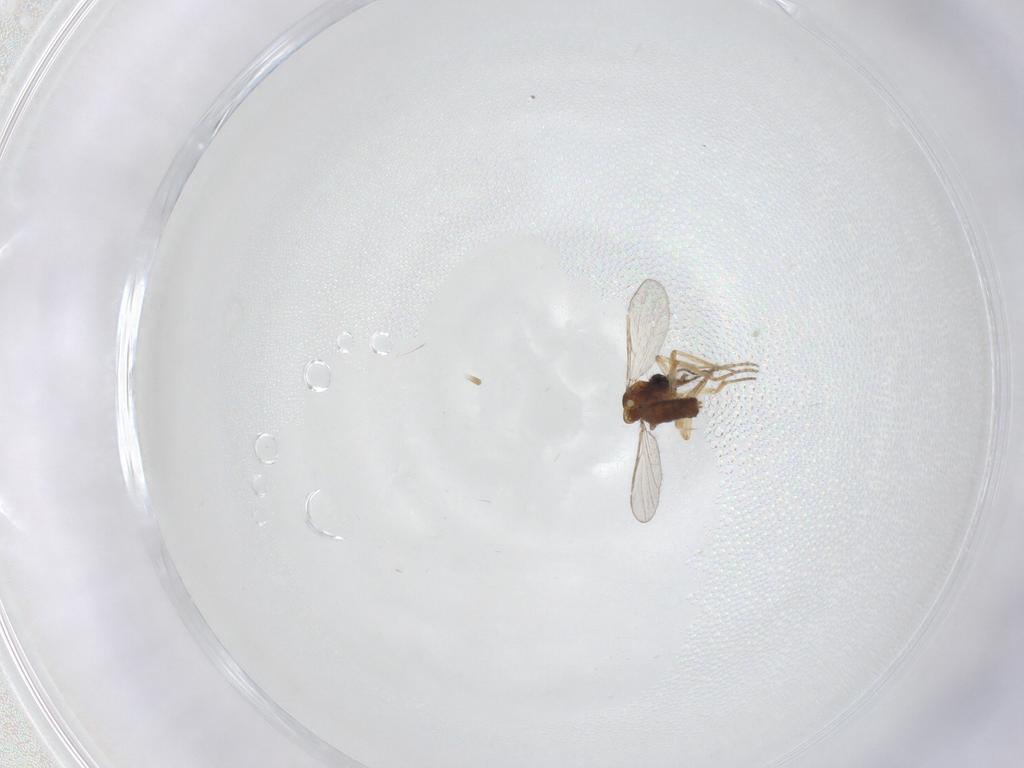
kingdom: Animalia
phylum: Arthropoda
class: Insecta
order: Diptera
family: Ceratopogonidae
